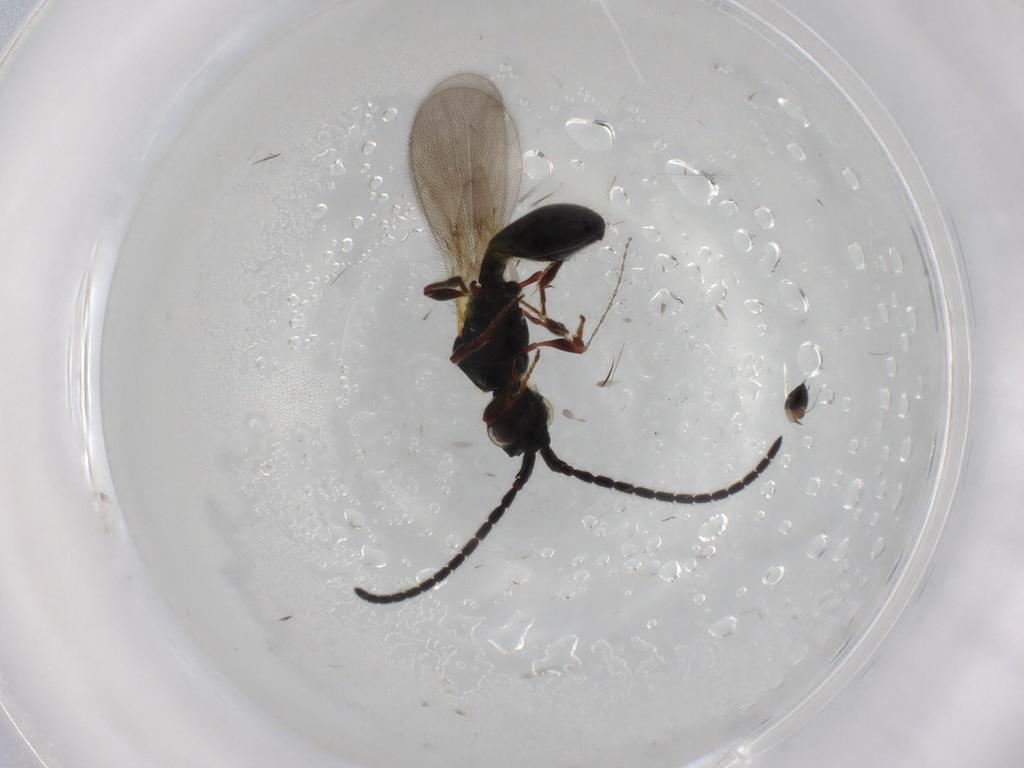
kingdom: Animalia
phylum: Arthropoda
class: Insecta
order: Hymenoptera
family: Diapriidae
